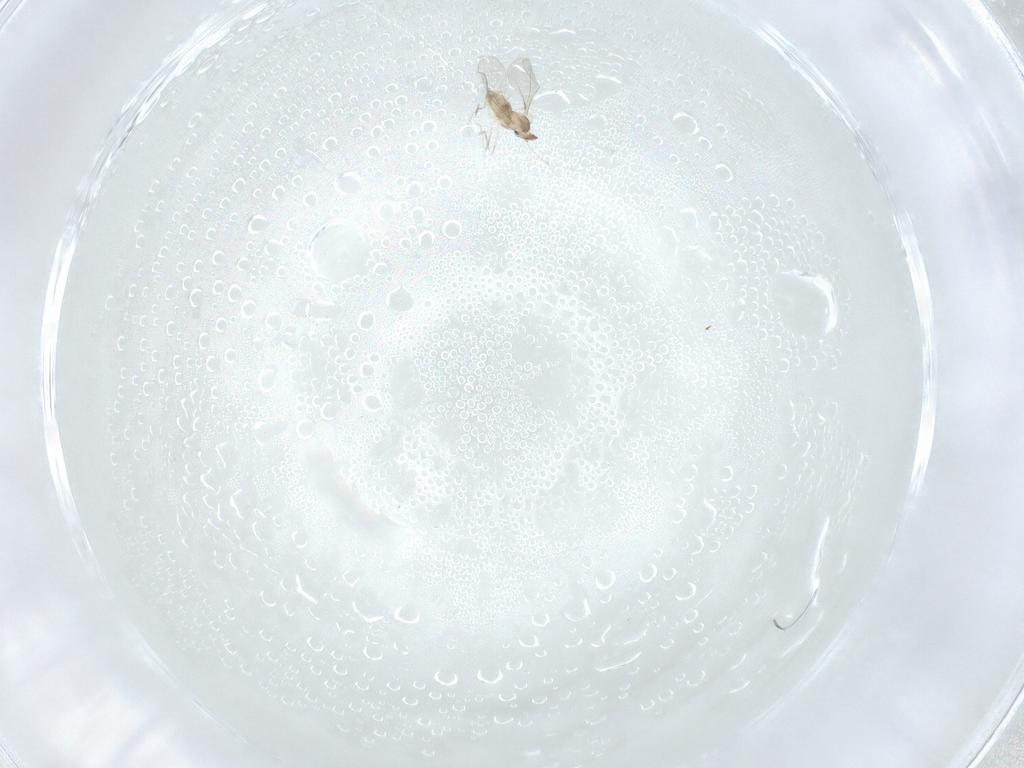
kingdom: Animalia
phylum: Arthropoda
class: Insecta
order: Diptera
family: Cecidomyiidae
